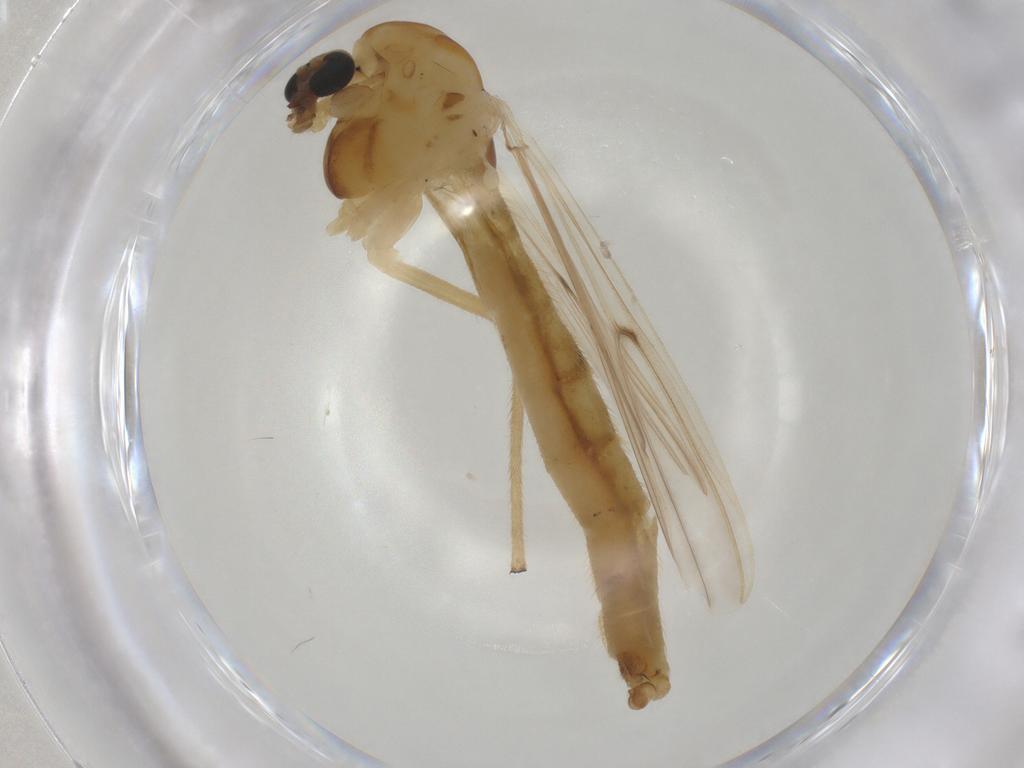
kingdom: Animalia
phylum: Arthropoda
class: Insecta
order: Diptera
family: Chironomidae
